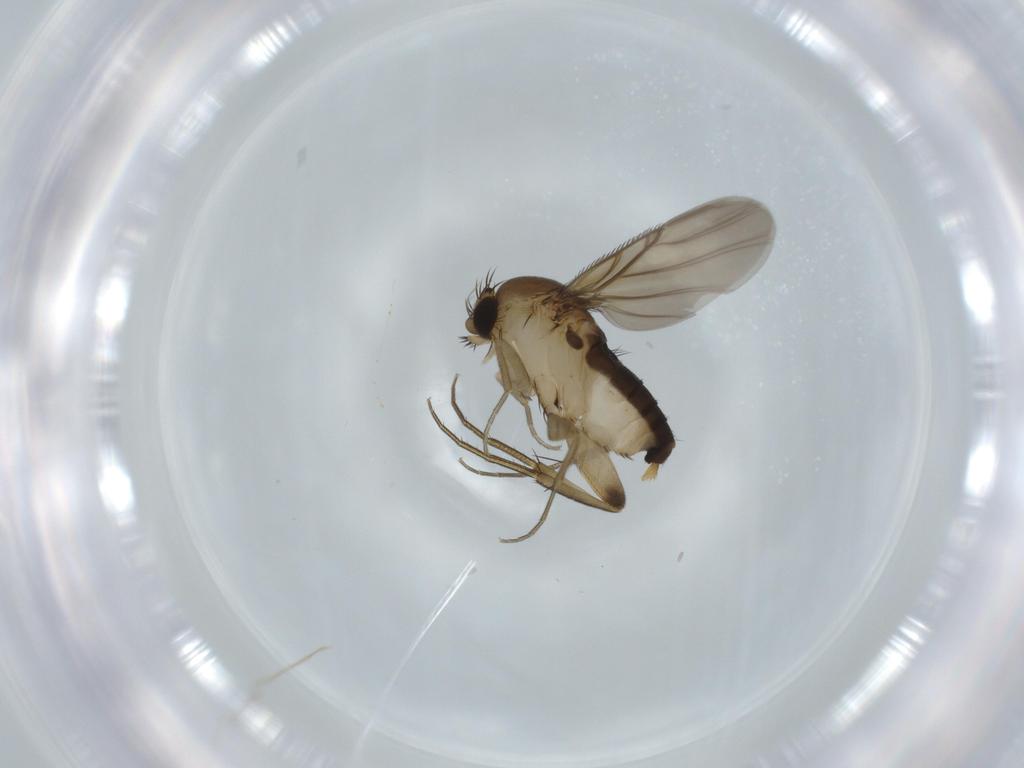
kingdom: Animalia
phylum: Arthropoda
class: Insecta
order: Diptera
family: Phoridae
